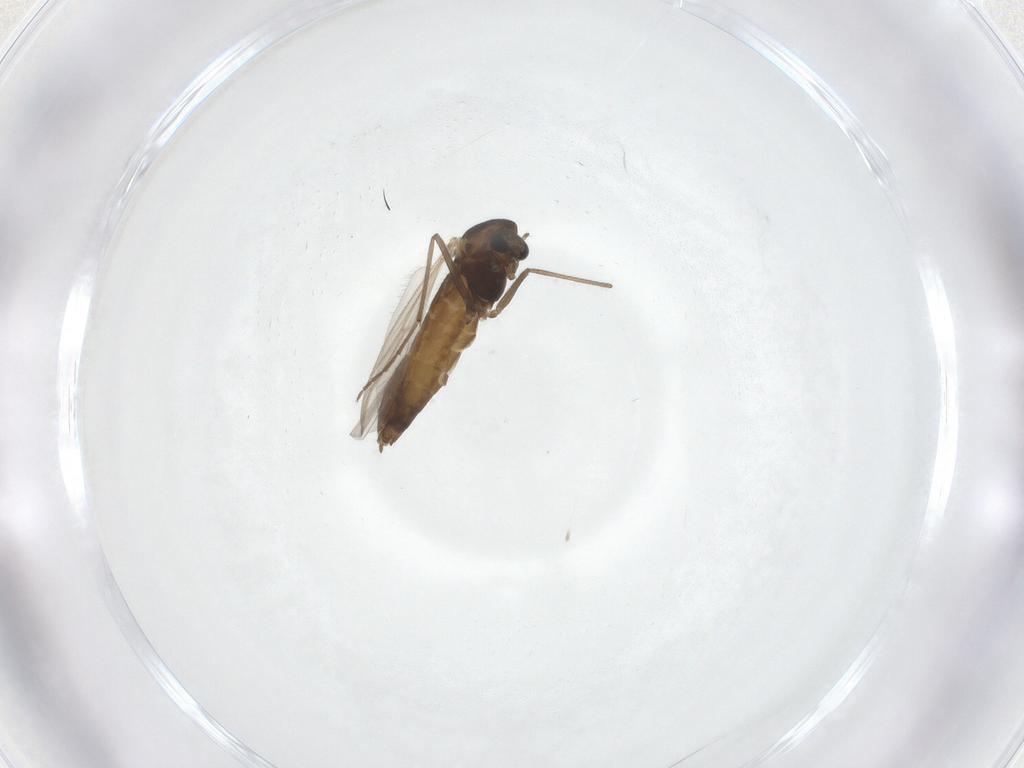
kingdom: Animalia
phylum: Arthropoda
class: Insecta
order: Diptera
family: Chironomidae
